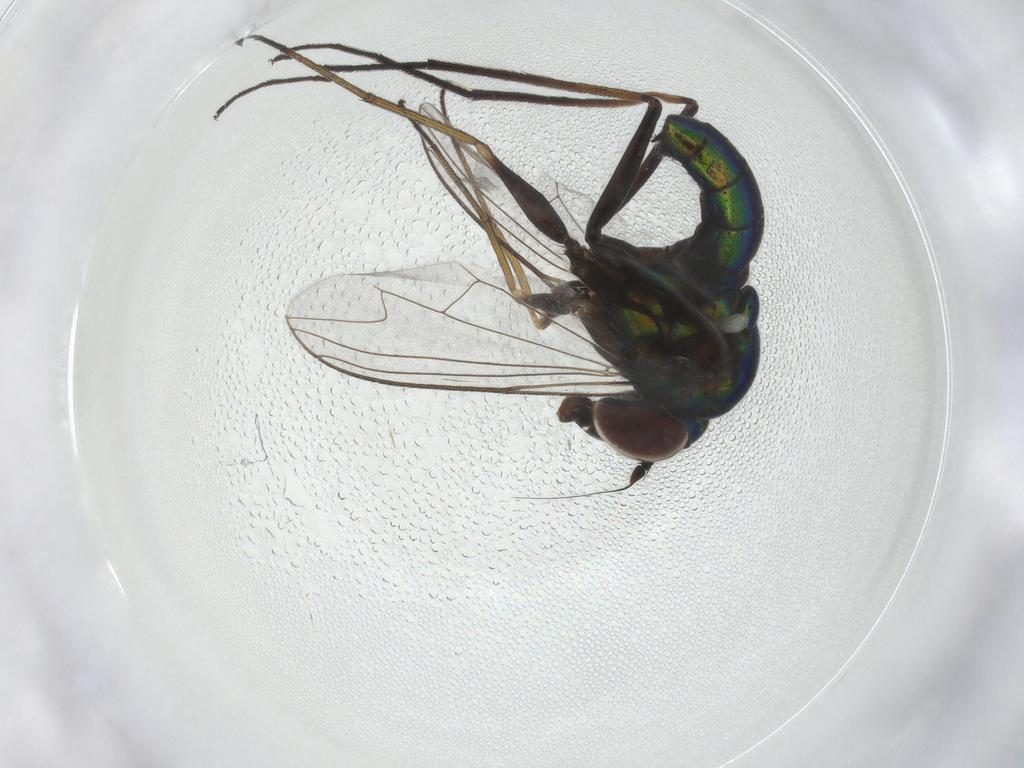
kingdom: Animalia
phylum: Arthropoda
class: Insecta
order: Diptera
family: Dolichopodidae
